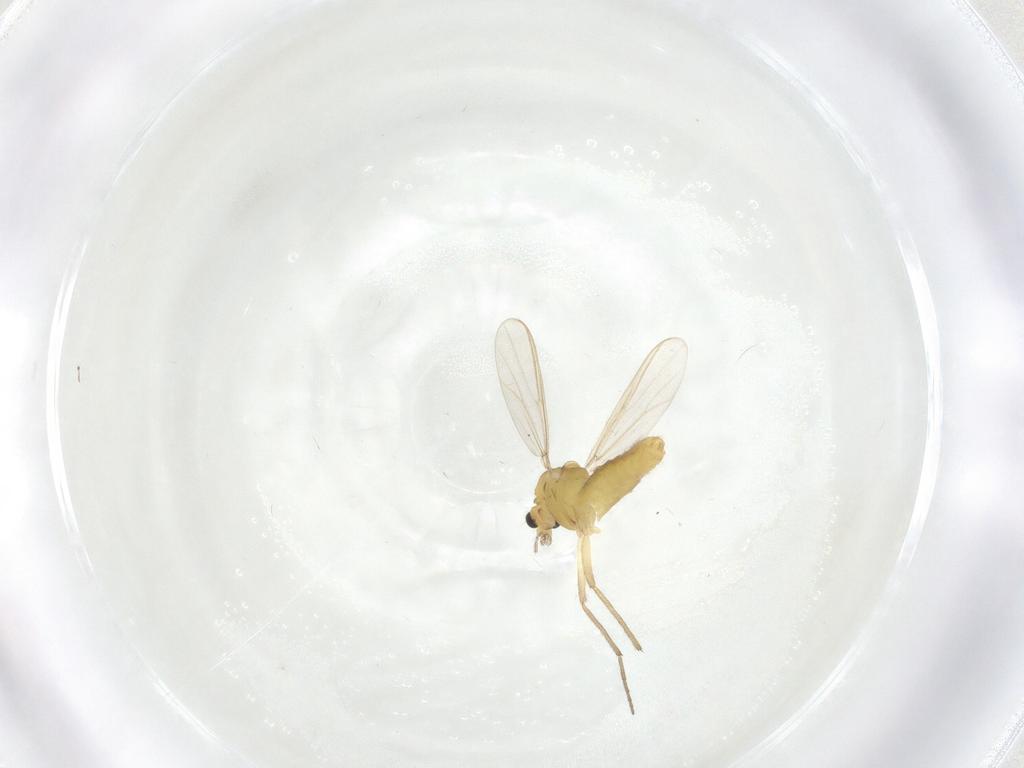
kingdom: Animalia
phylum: Arthropoda
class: Insecta
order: Diptera
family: Chironomidae
